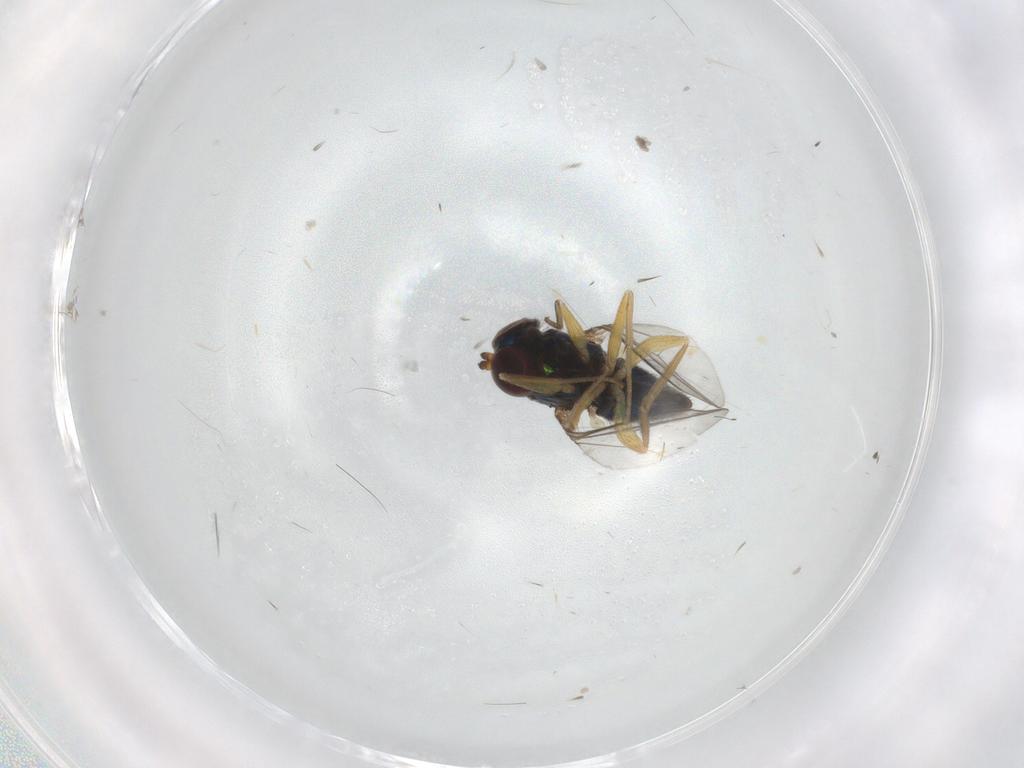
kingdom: Animalia
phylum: Arthropoda
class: Insecta
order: Diptera
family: Dolichopodidae
